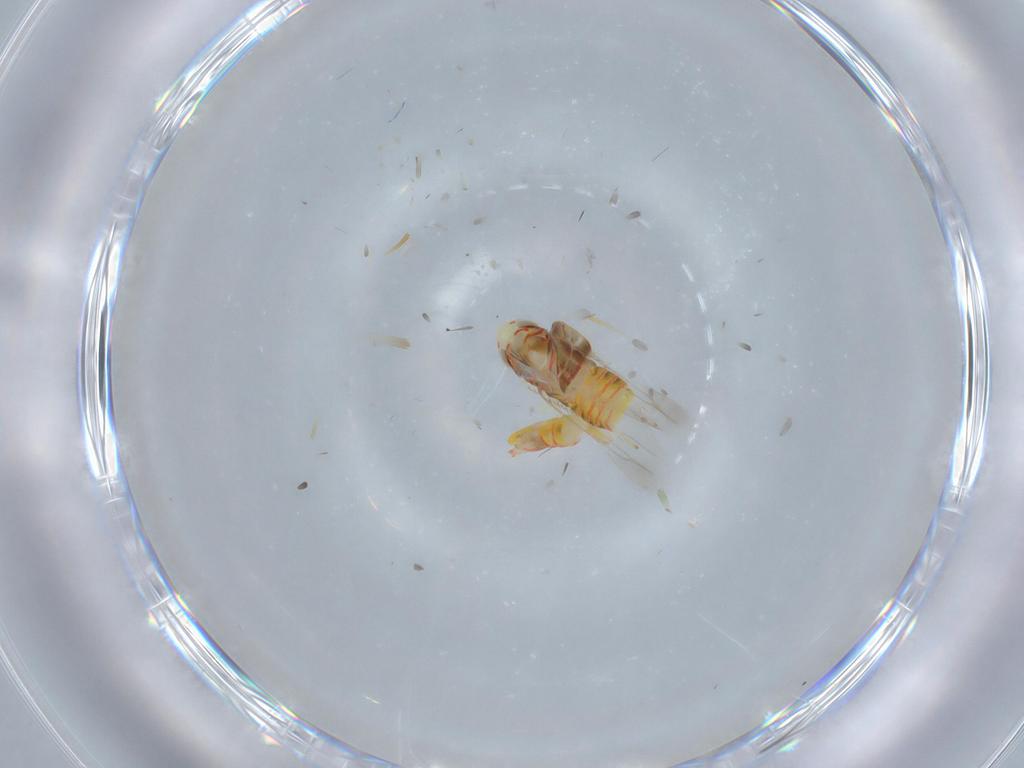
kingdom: Animalia
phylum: Arthropoda
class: Insecta
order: Hemiptera
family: Cicadellidae
